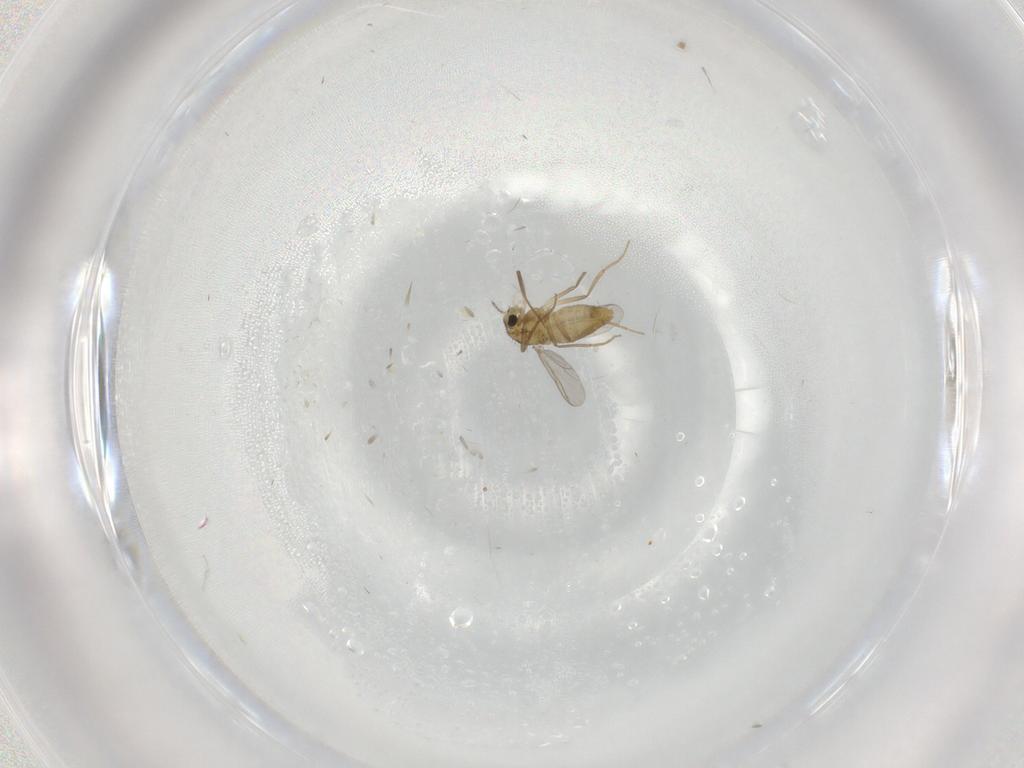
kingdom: Animalia
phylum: Arthropoda
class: Insecta
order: Diptera
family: Chironomidae
